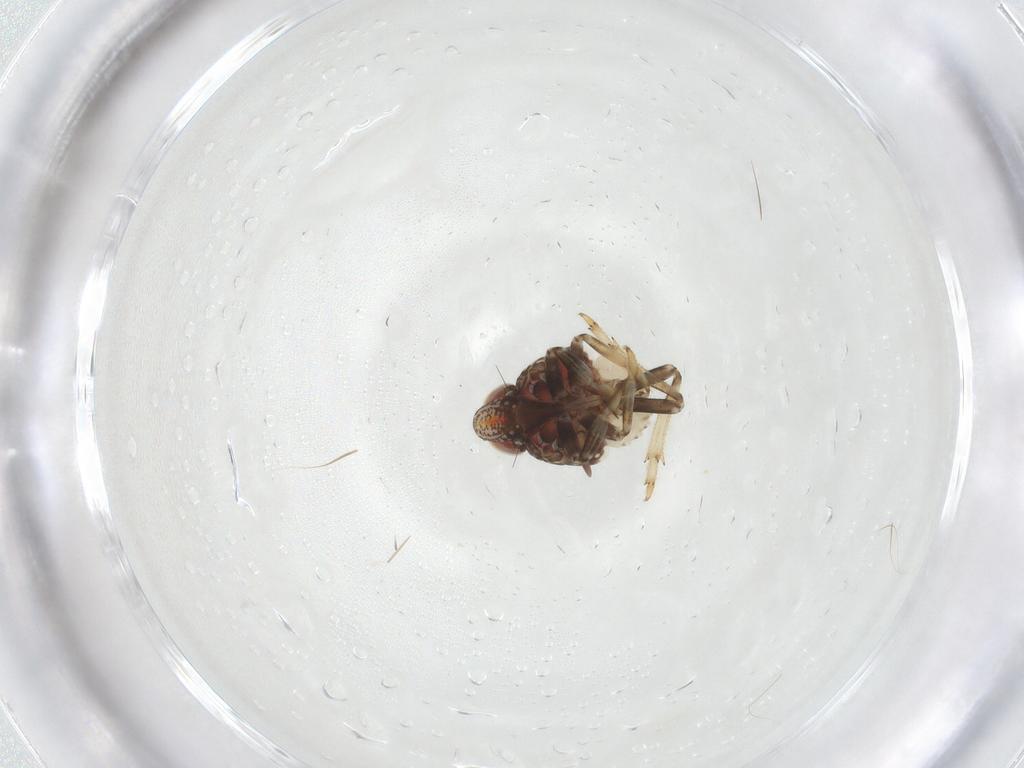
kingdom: Animalia
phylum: Arthropoda
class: Insecta
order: Hemiptera
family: Issidae
